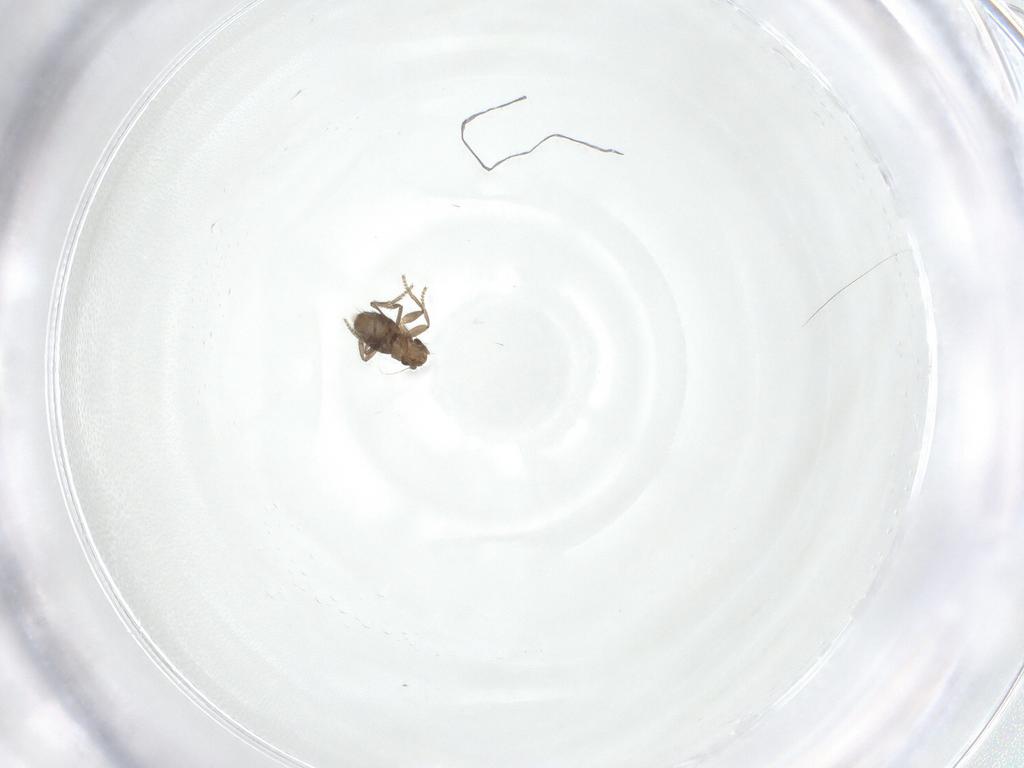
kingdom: Animalia
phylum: Arthropoda
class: Insecta
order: Diptera
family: Phoridae
